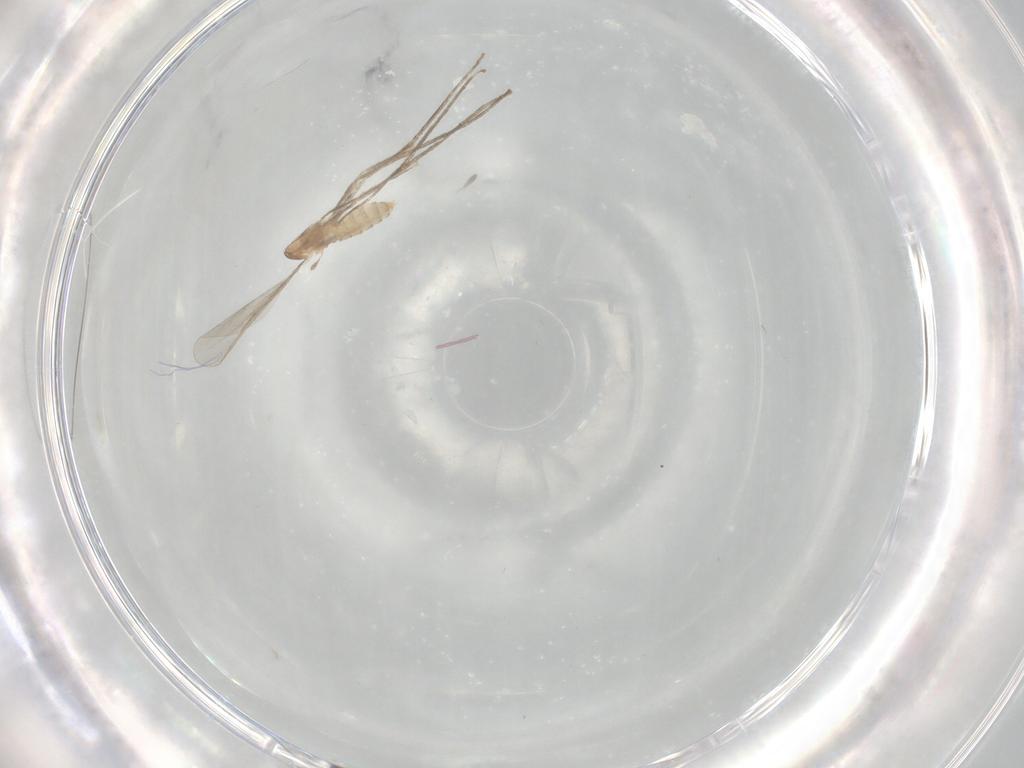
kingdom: Animalia
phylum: Arthropoda
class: Insecta
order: Diptera
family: Cecidomyiidae
